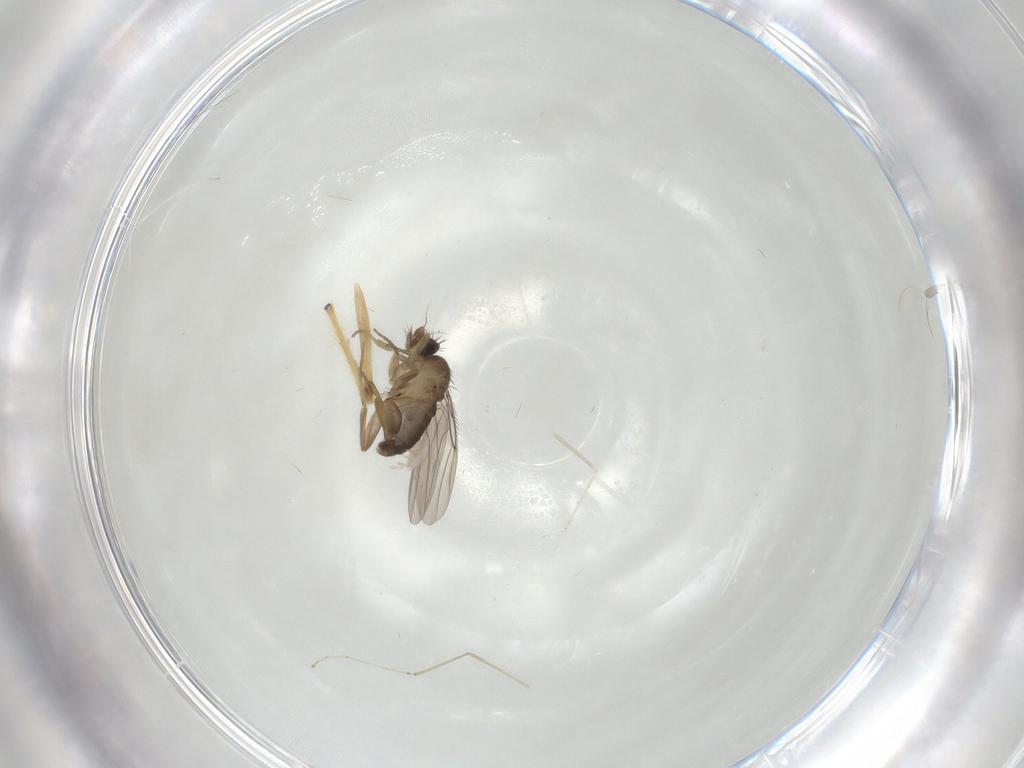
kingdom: Animalia
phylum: Arthropoda
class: Insecta
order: Diptera
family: Phoridae
